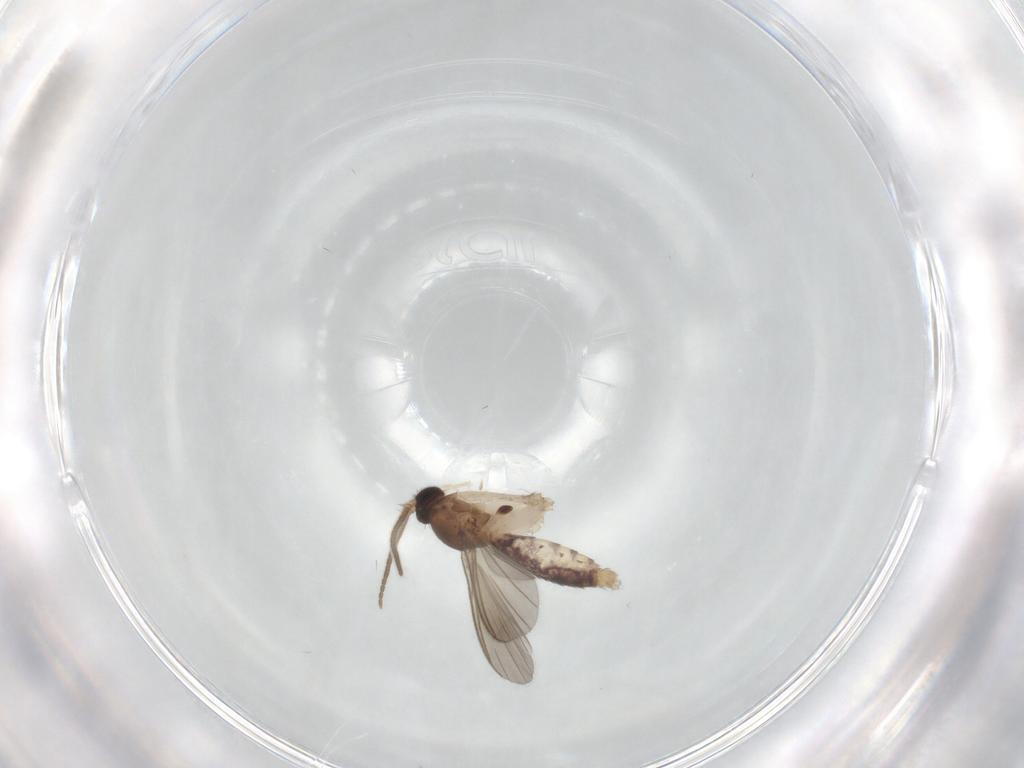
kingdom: Animalia
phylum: Arthropoda
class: Insecta
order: Diptera
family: Mycetophilidae
